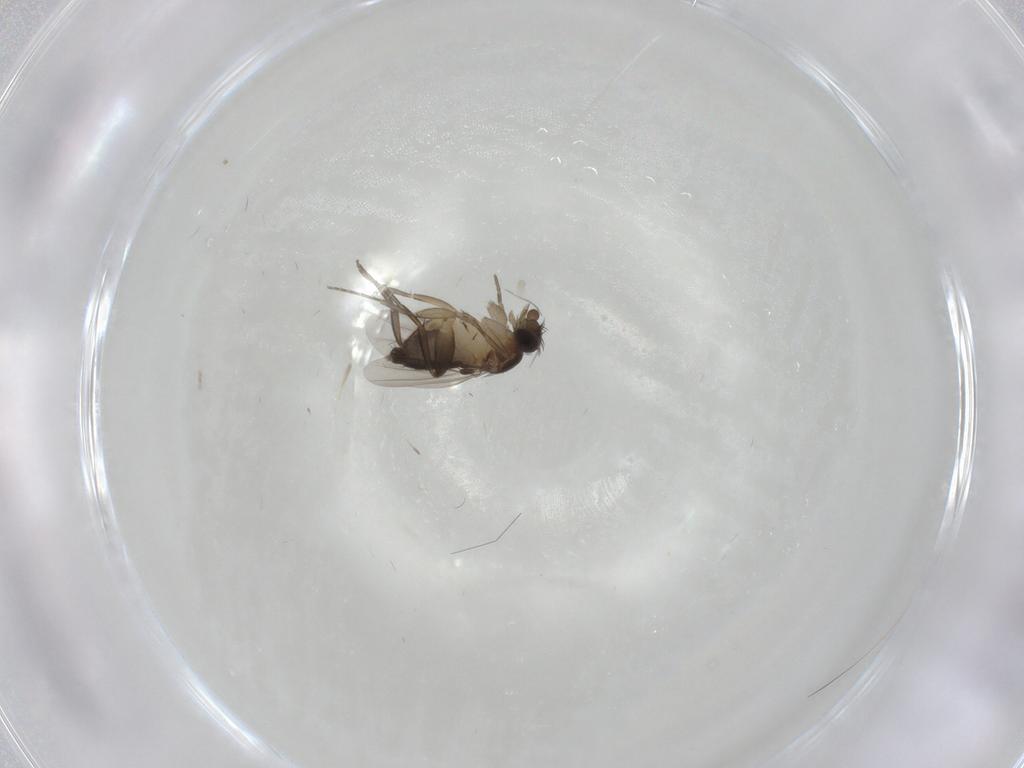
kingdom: Animalia
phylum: Arthropoda
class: Insecta
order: Diptera
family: Phoridae
